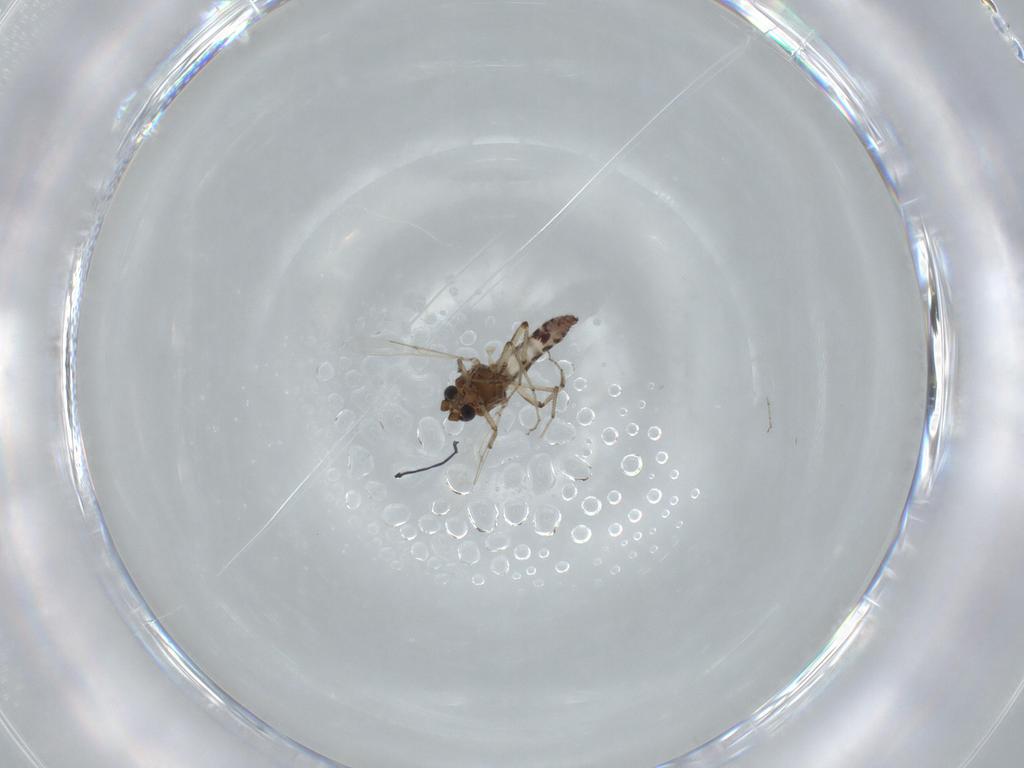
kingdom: Animalia
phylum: Arthropoda
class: Insecta
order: Diptera
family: Ceratopogonidae
